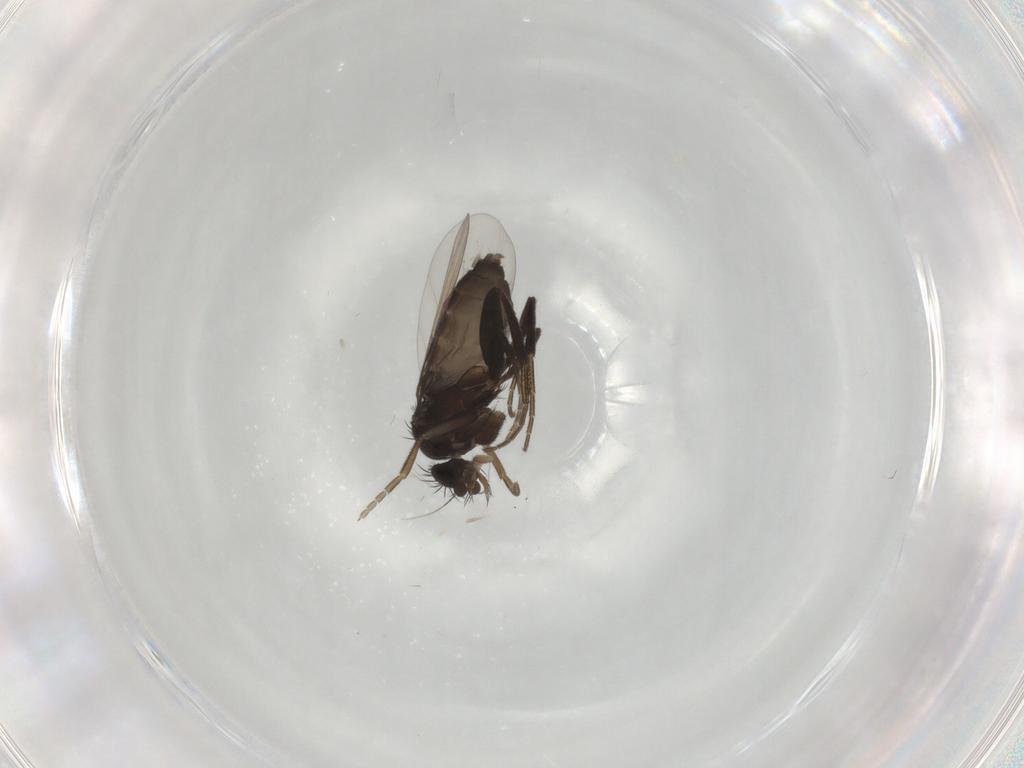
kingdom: Animalia
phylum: Arthropoda
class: Insecta
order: Diptera
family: Phoridae
